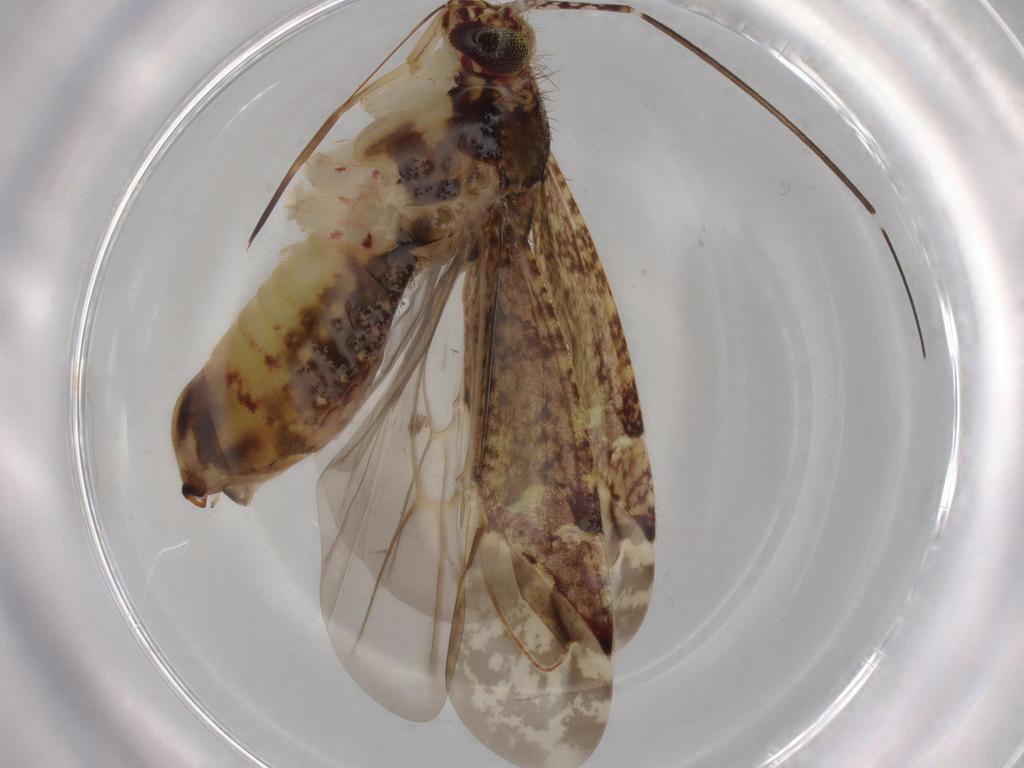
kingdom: Animalia
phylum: Arthropoda
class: Insecta
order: Hemiptera
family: Miridae
